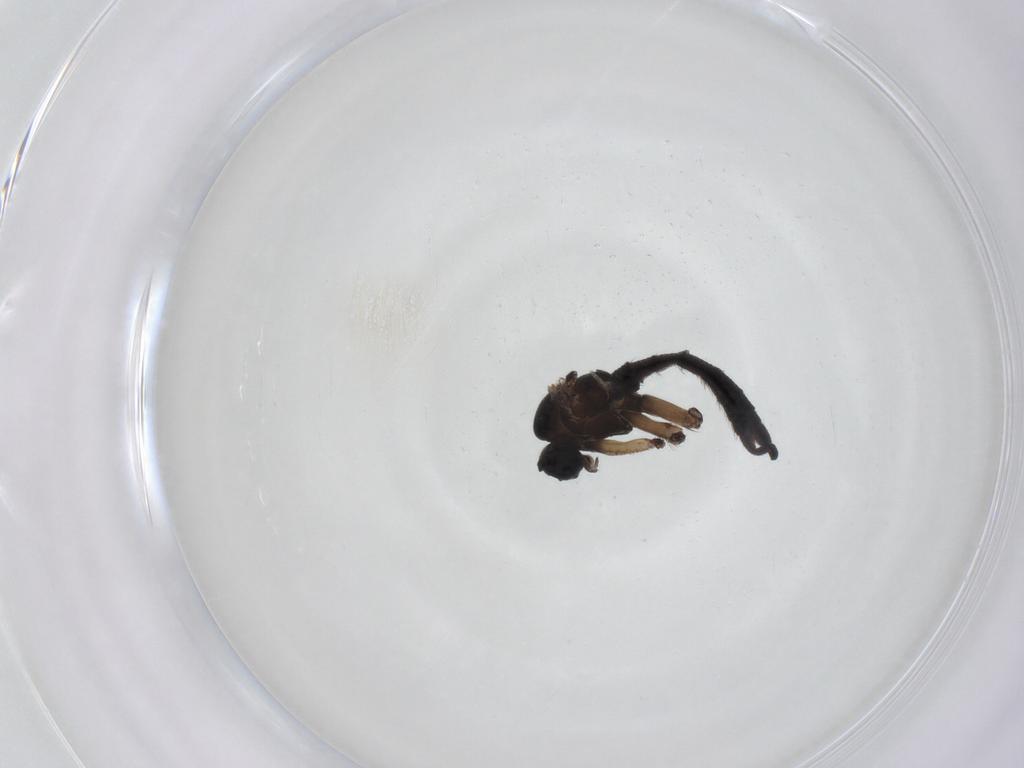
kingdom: Animalia
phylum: Arthropoda
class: Insecta
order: Diptera
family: Sciaridae
